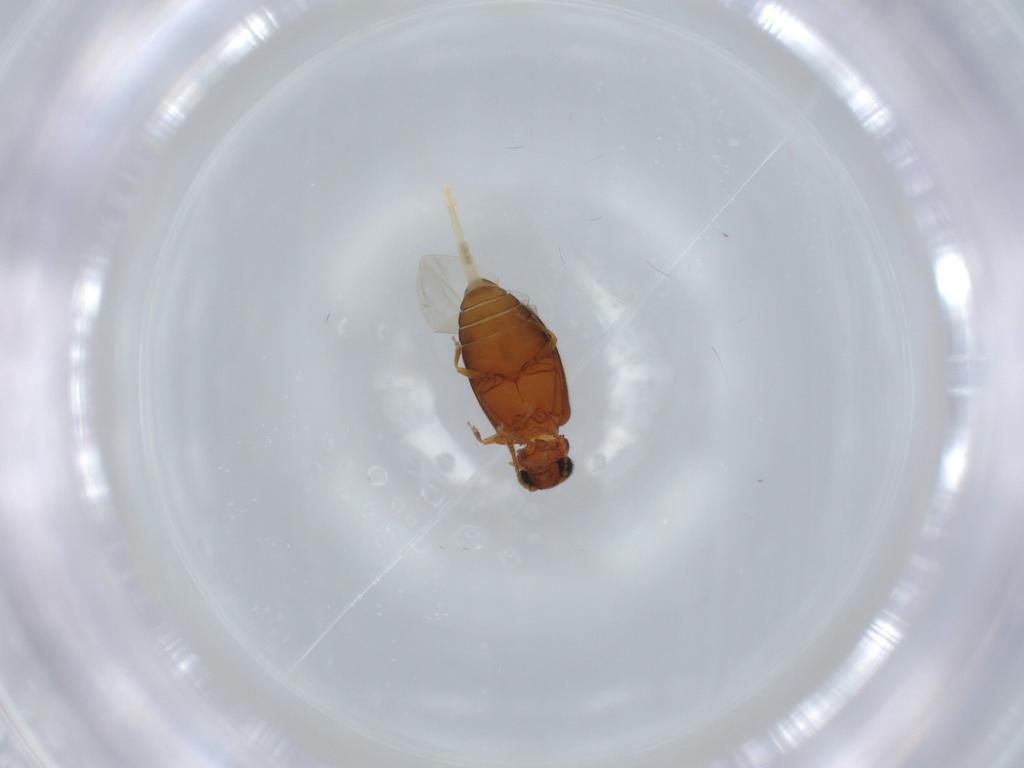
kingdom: Animalia
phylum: Arthropoda
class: Insecta
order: Coleoptera
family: Aderidae
